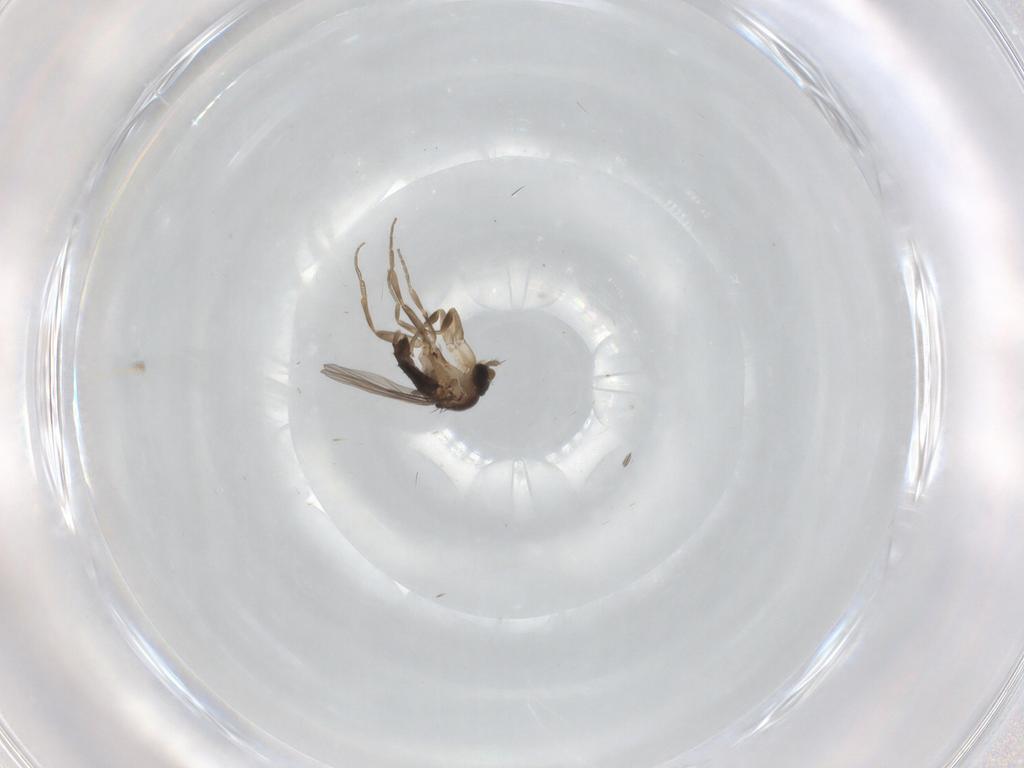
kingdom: Animalia
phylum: Arthropoda
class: Insecta
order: Diptera
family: Phoridae
